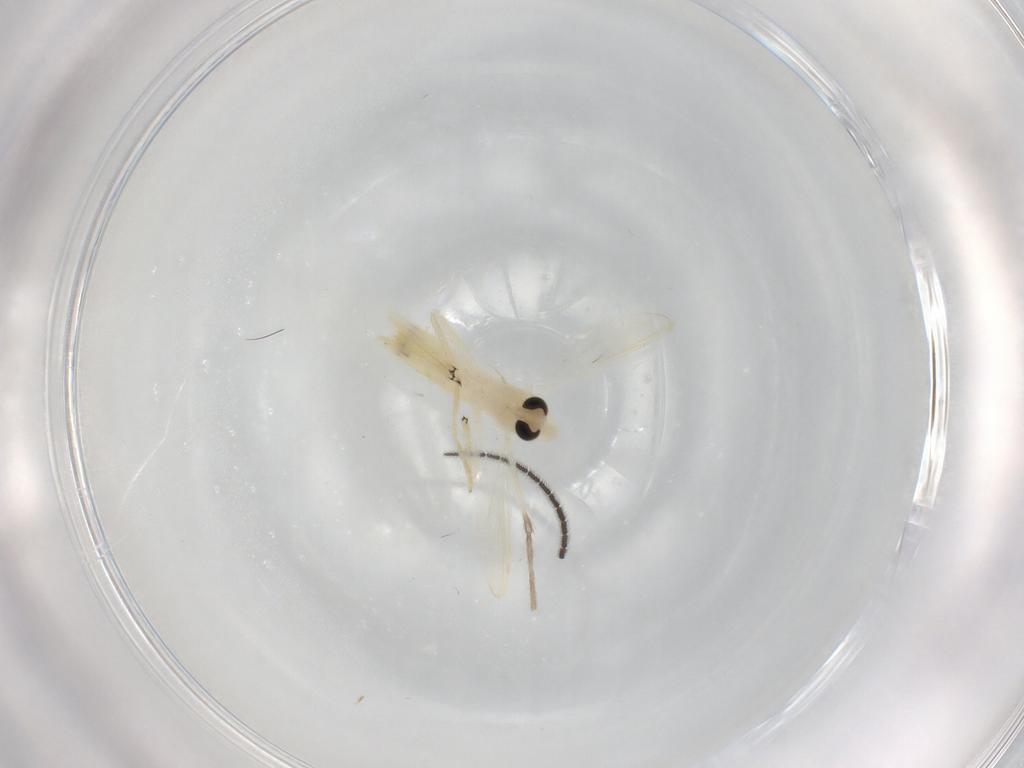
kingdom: Animalia
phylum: Arthropoda
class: Insecta
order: Diptera
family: Chironomidae
